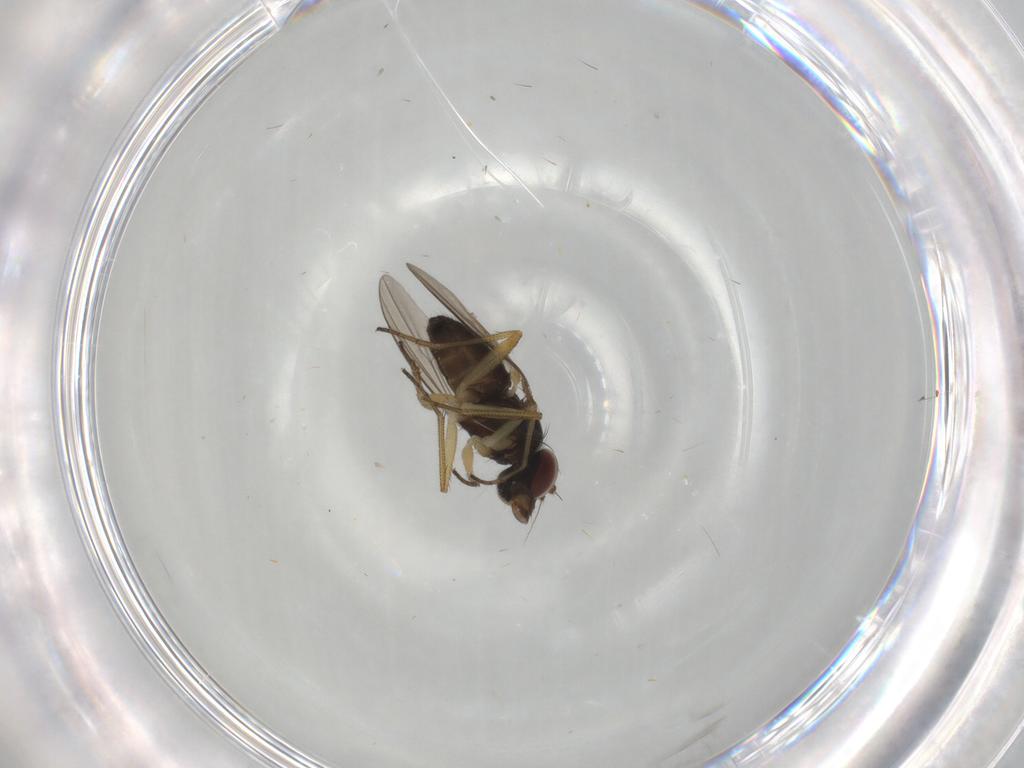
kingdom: Animalia
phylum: Arthropoda
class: Insecta
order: Diptera
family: Dolichopodidae
